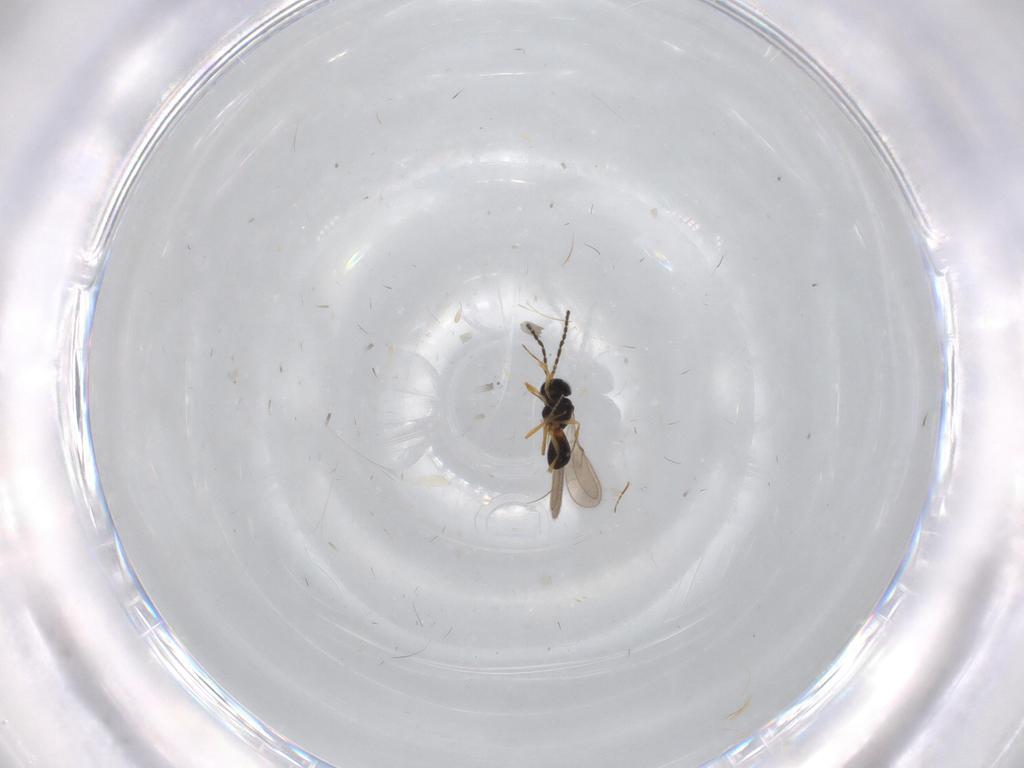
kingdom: Animalia
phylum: Arthropoda
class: Insecta
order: Hymenoptera
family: Scelionidae
